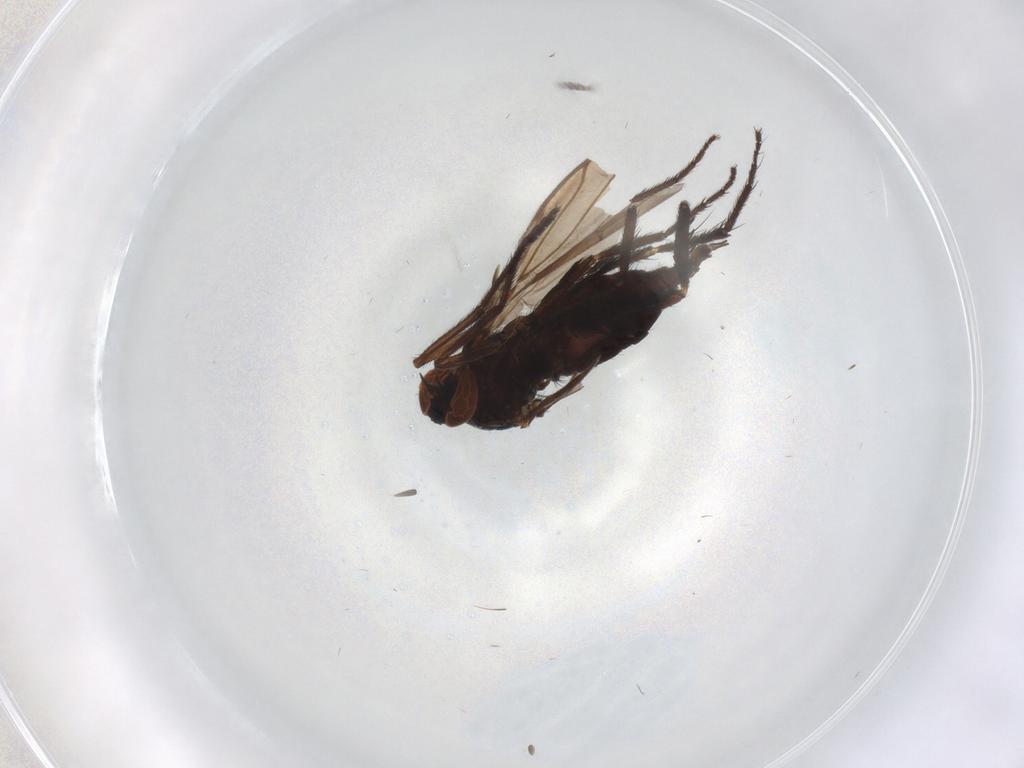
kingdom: Animalia
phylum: Arthropoda
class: Insecta
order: Diptera
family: Empididae
